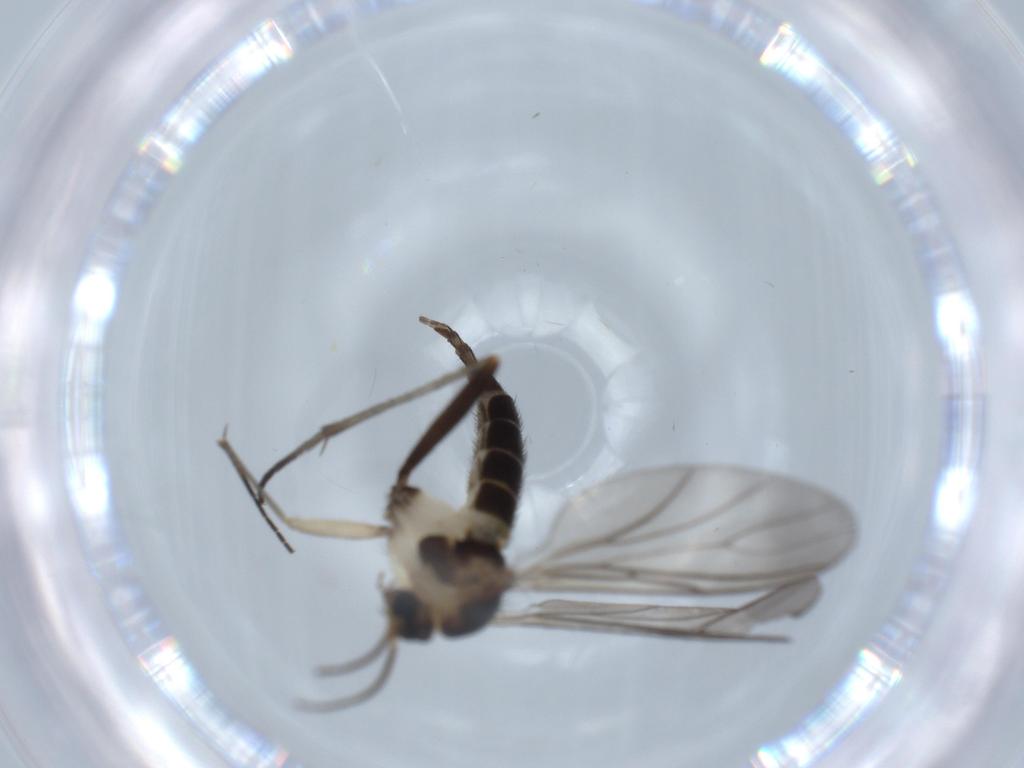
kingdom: Animalia
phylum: Arthropoda
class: Insecta
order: Diptera
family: Sciaridae
